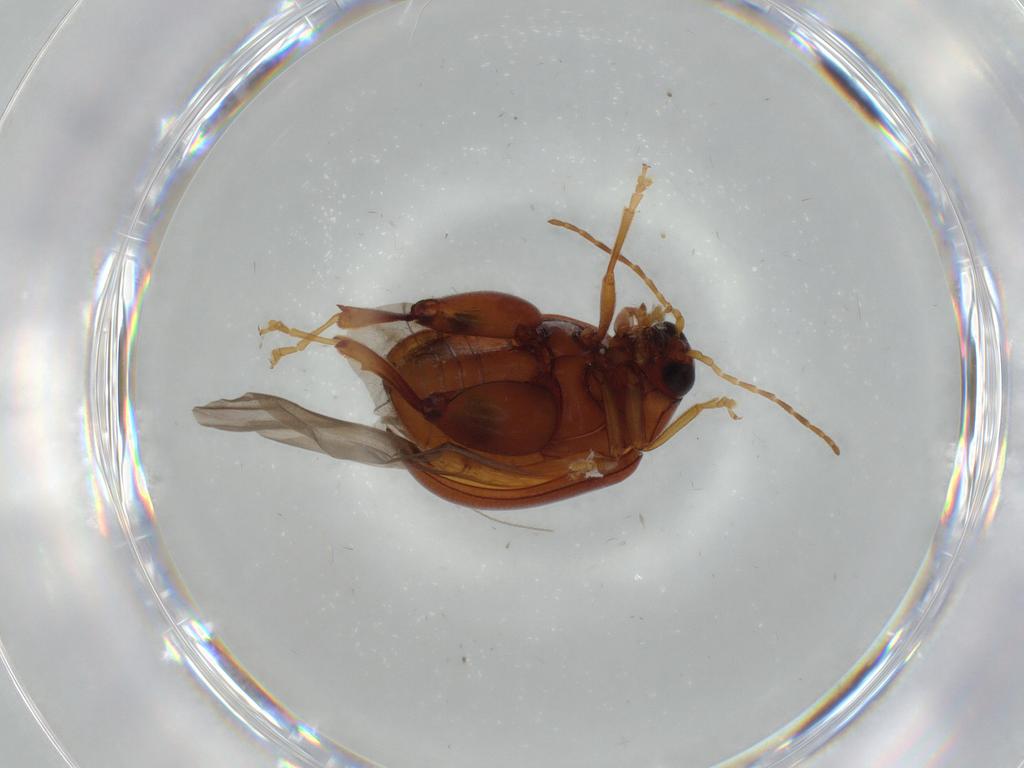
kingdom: Animalia
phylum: Arthropoda
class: Insecta
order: Coleoptera
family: Chrysomelidae
